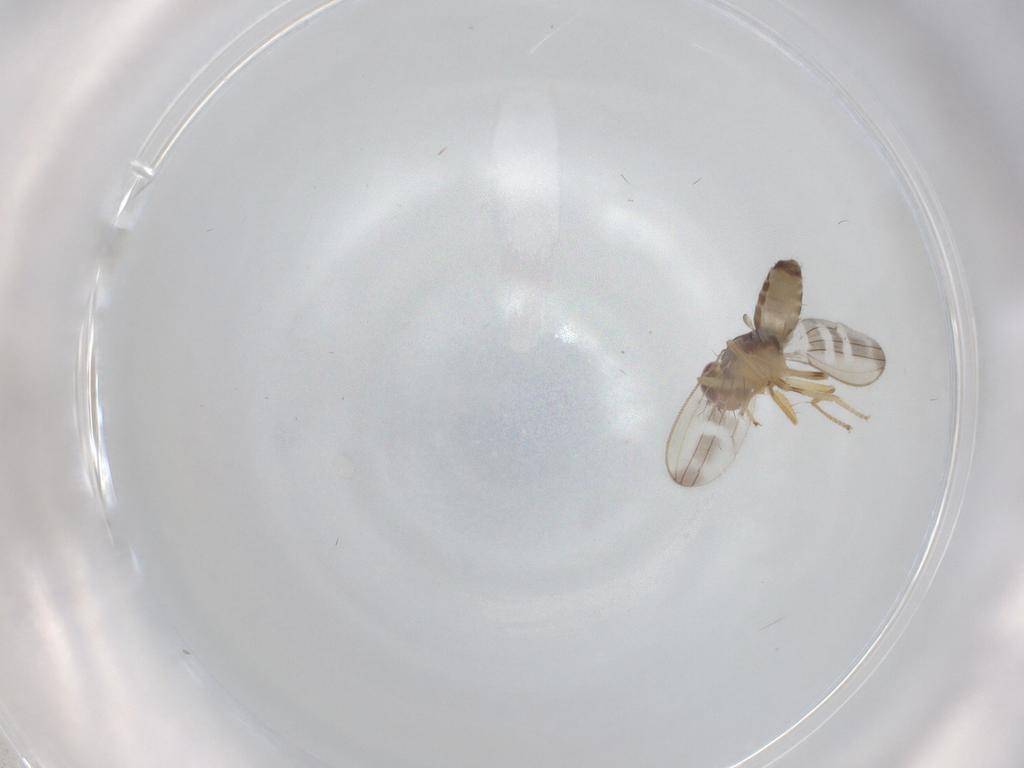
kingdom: Animalia
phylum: Arthropoda
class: Insecta
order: Diptera
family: Periscelididae
